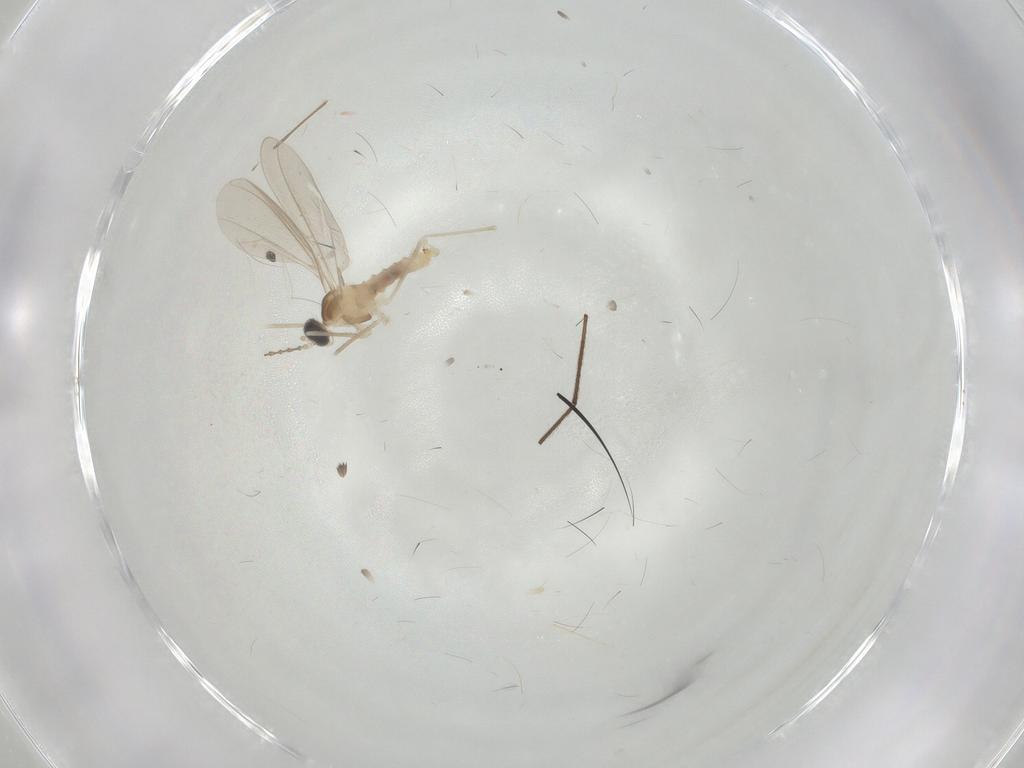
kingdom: Animalia
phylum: Arthropoda
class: Insecta
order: Diptera
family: Cecidomyiidae
